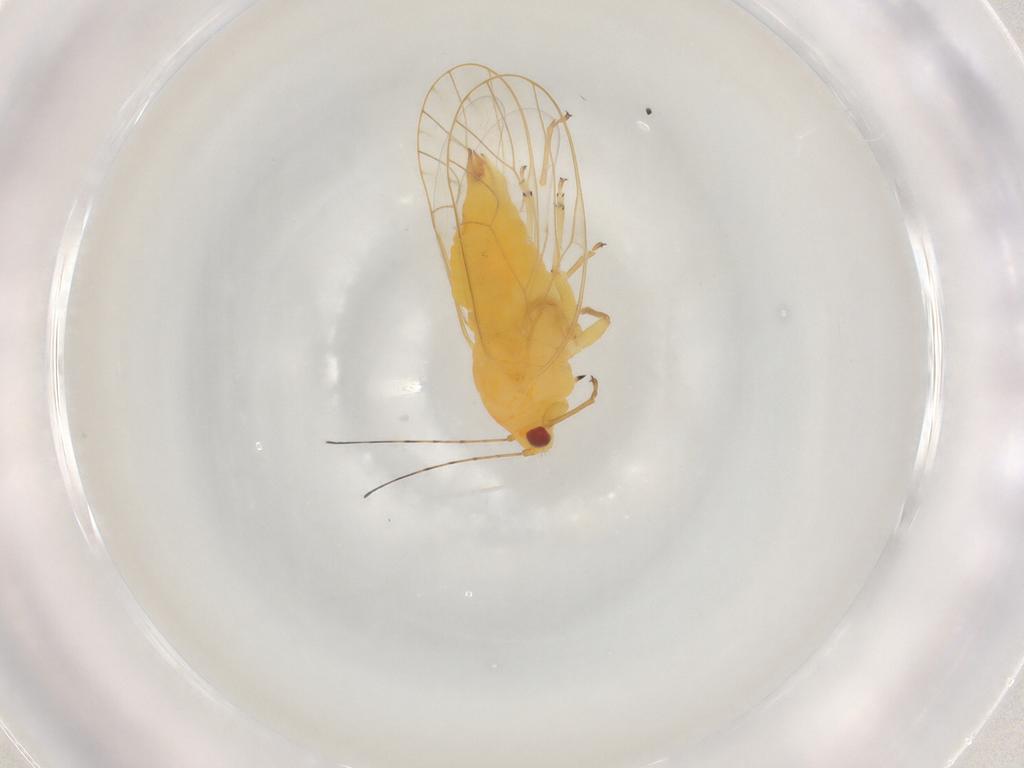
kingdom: Animalia
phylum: Arthropoda
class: Insecta
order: Hemiptera
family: Psyllidae
